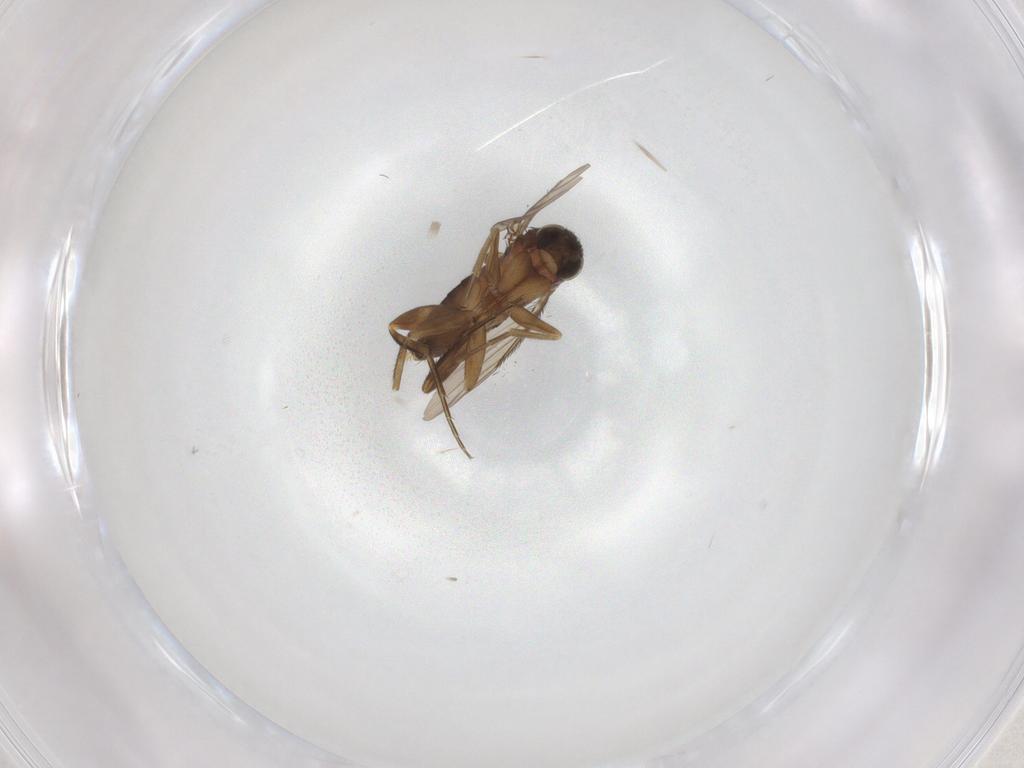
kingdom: Animalia
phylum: Arthropoda
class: Insecta
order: Diptera
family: Phoridae
